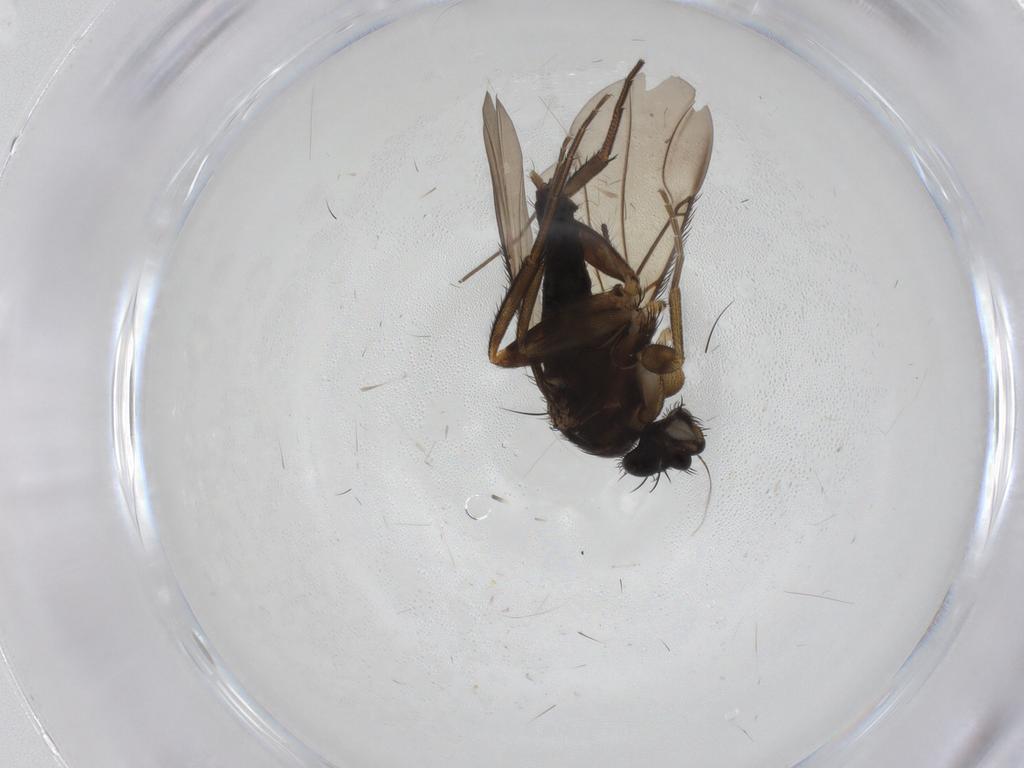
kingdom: Animalia
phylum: Arthropoda
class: Insecta
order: Diptera
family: Phoridae
